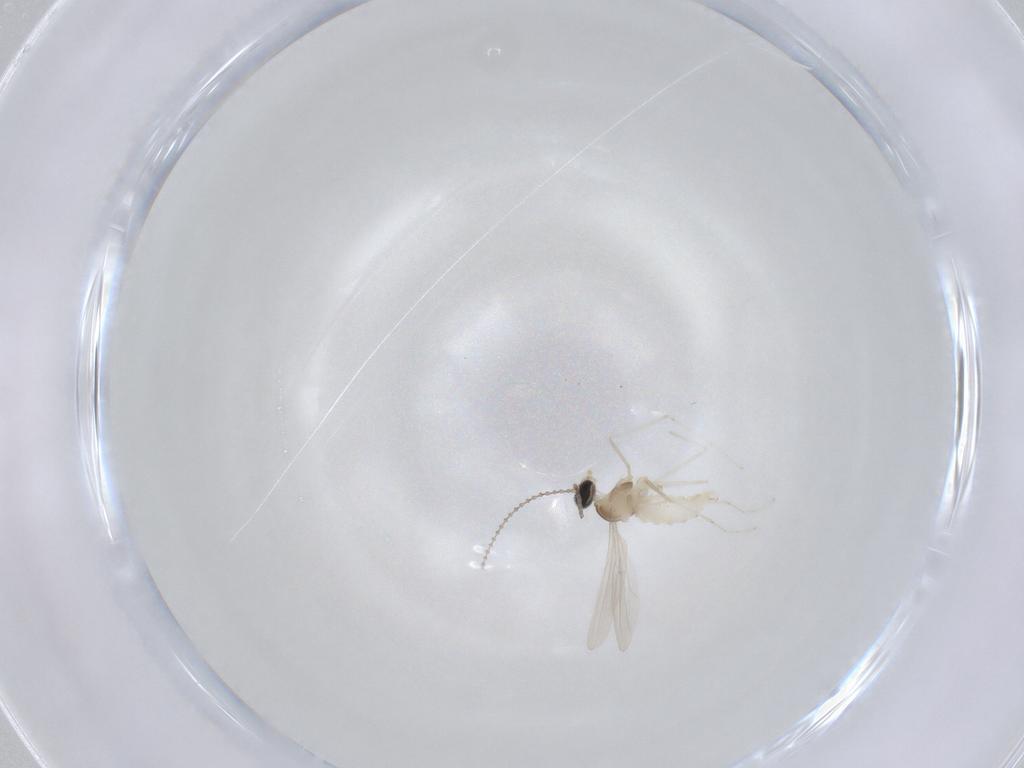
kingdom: Animalia
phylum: Arthropoda
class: Insecta
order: Diptera
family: Cecidomyiidae
